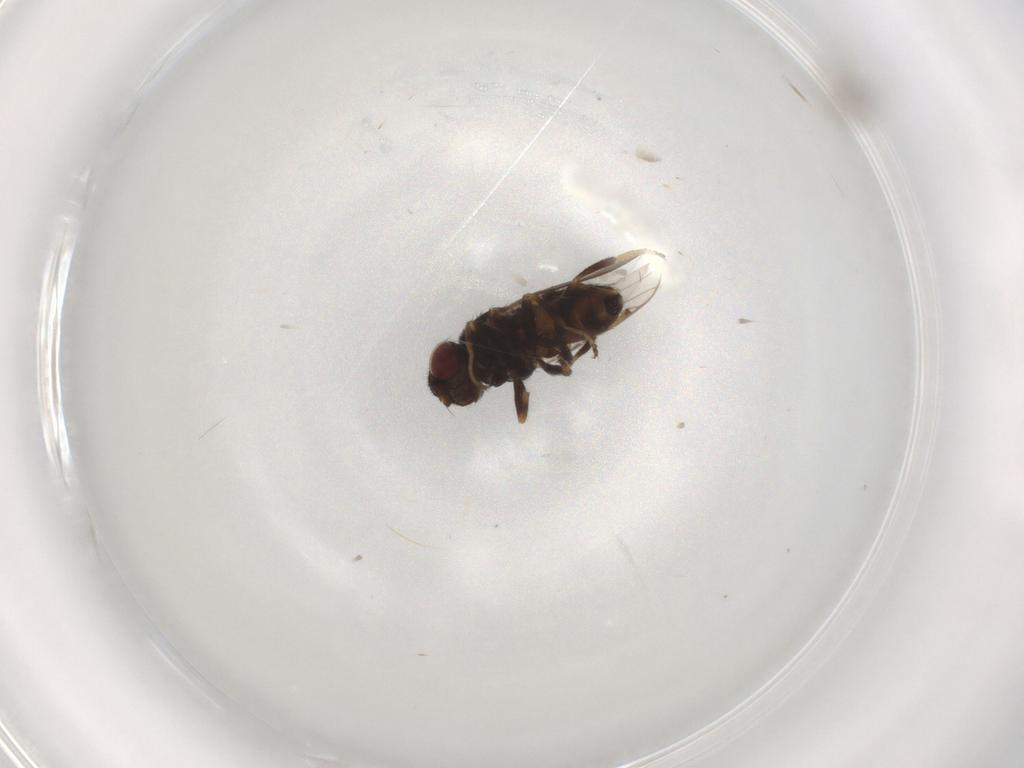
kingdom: Animalia
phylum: Arthropoda
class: Insecta
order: Diptera
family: Chloropidae
